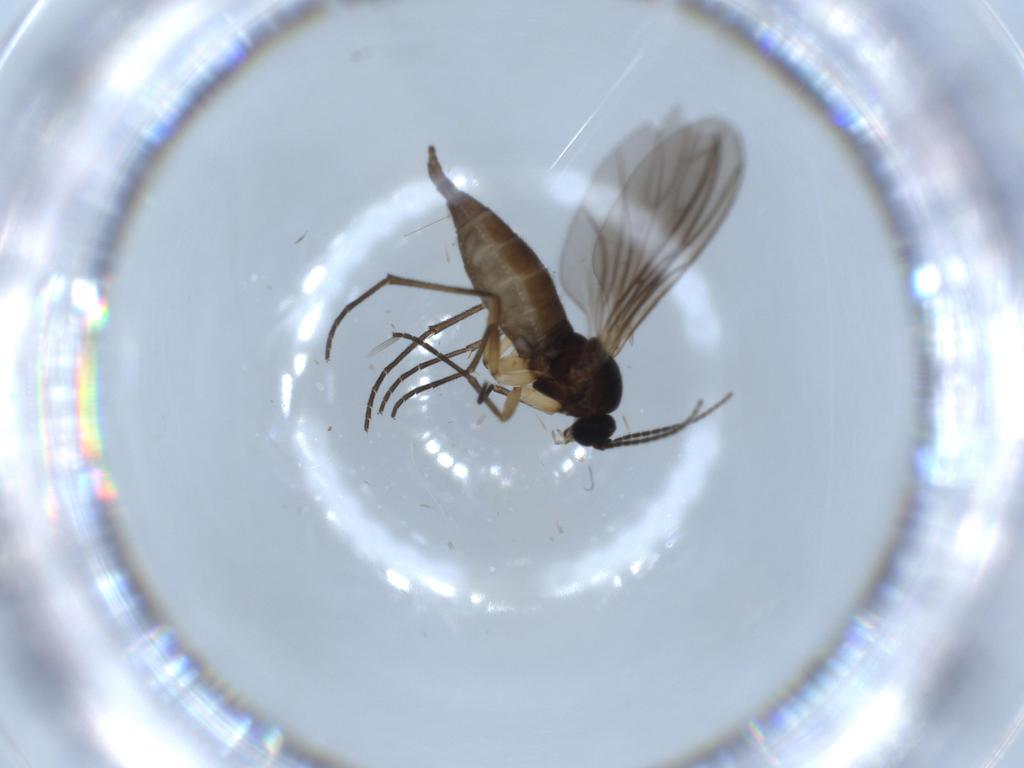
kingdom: Animalia
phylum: Arthropoda
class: Insecta
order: Diptera
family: Sciaridae
